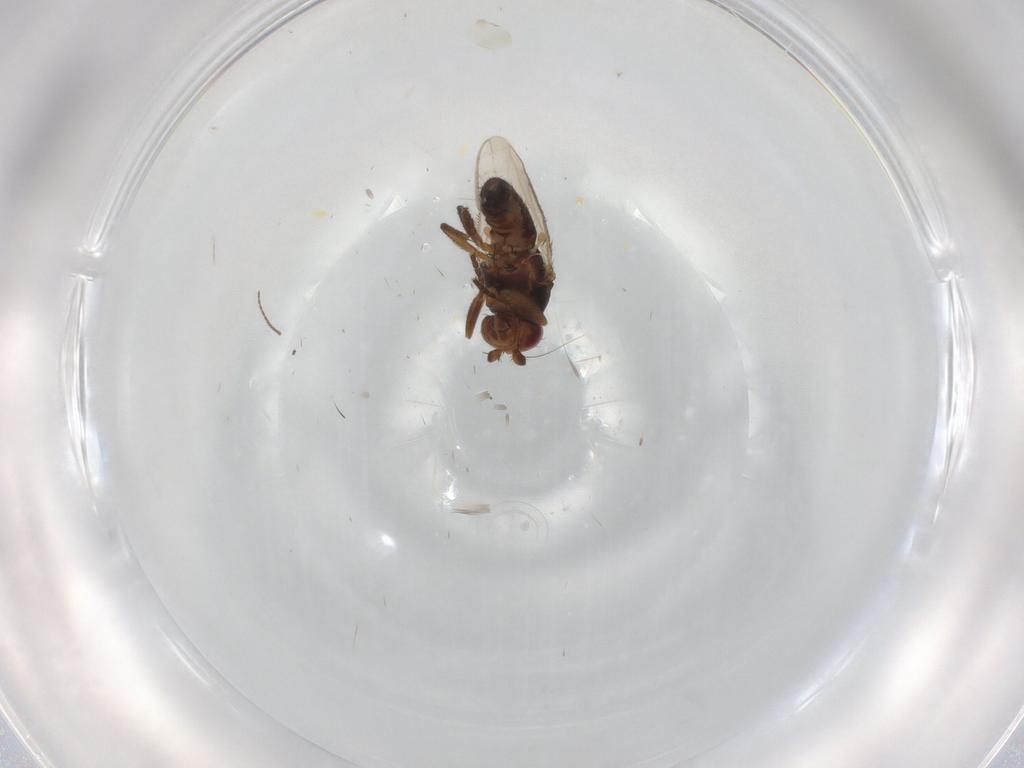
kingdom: Animalia
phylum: Arthropoda
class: Insecta
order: Diptera
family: Sphaeroceridae
